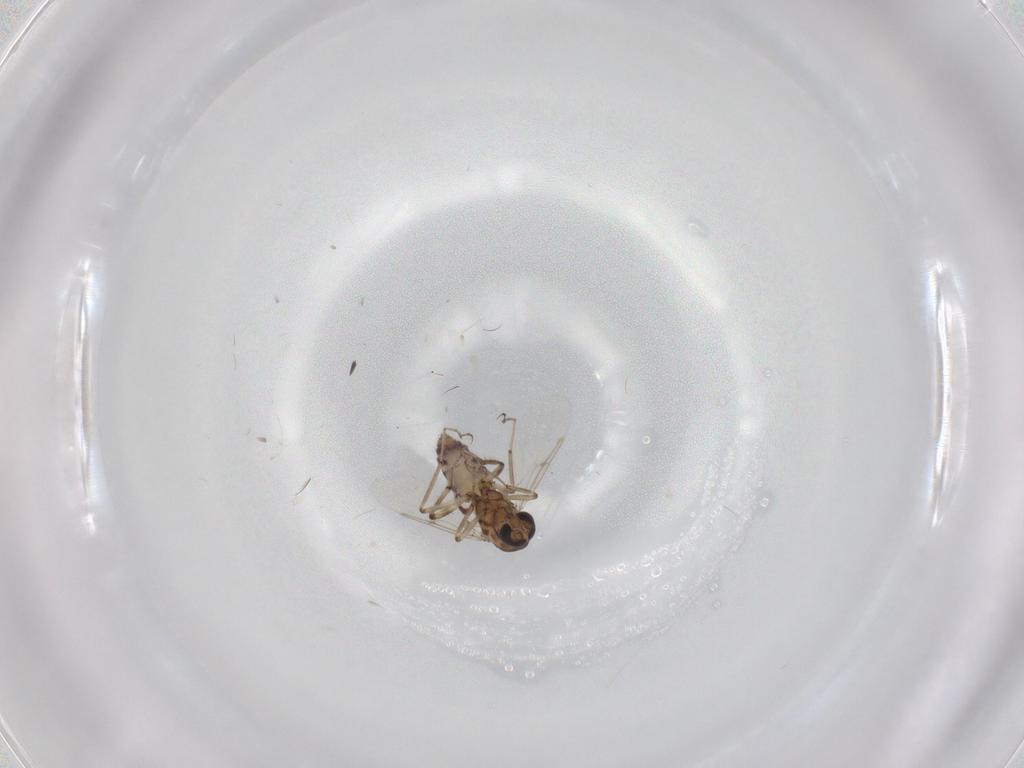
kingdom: Animalia
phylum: Arthropoda
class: Insecta
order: Diptera
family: Ceratopogonidae
